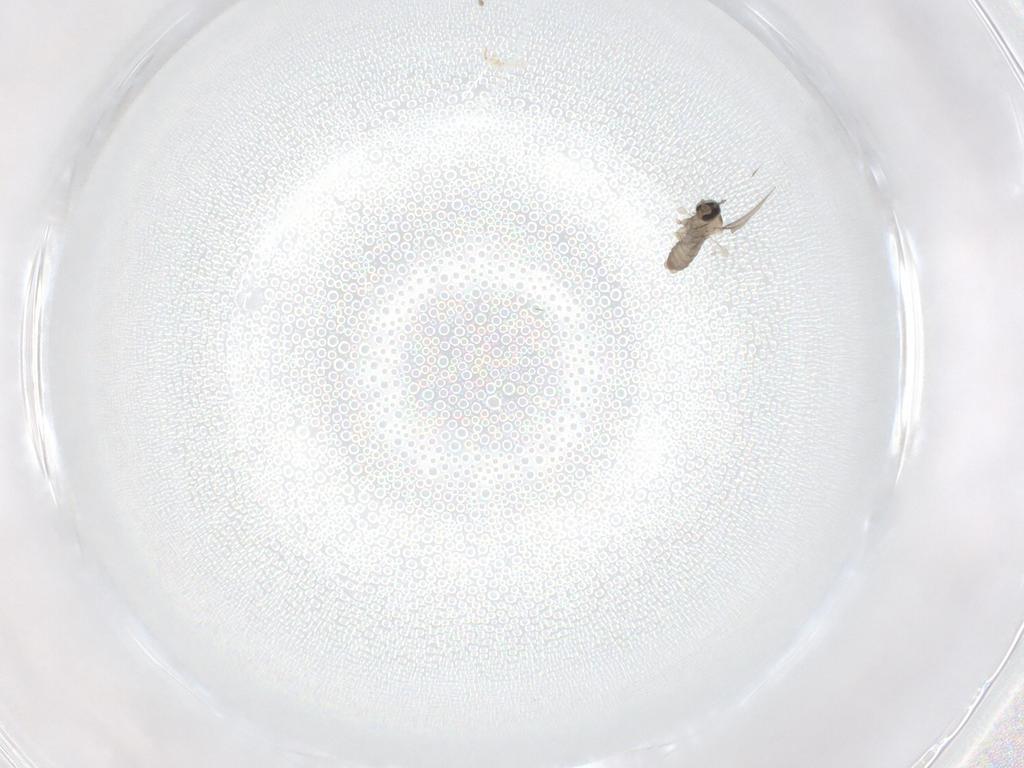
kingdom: Animalia
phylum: Arthropoda
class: Insecta
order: Diptera
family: Cecidomyiidae
